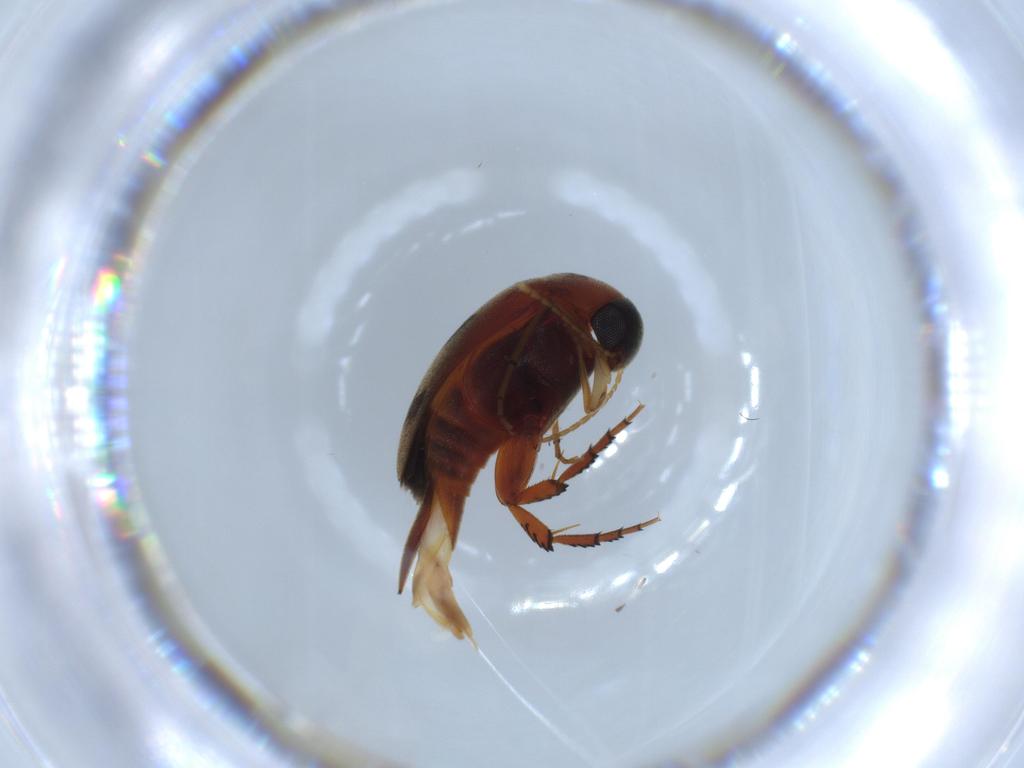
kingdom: Animalia
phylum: Arthropoda
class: Insecta
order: Coleoptera
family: Mordellidae
